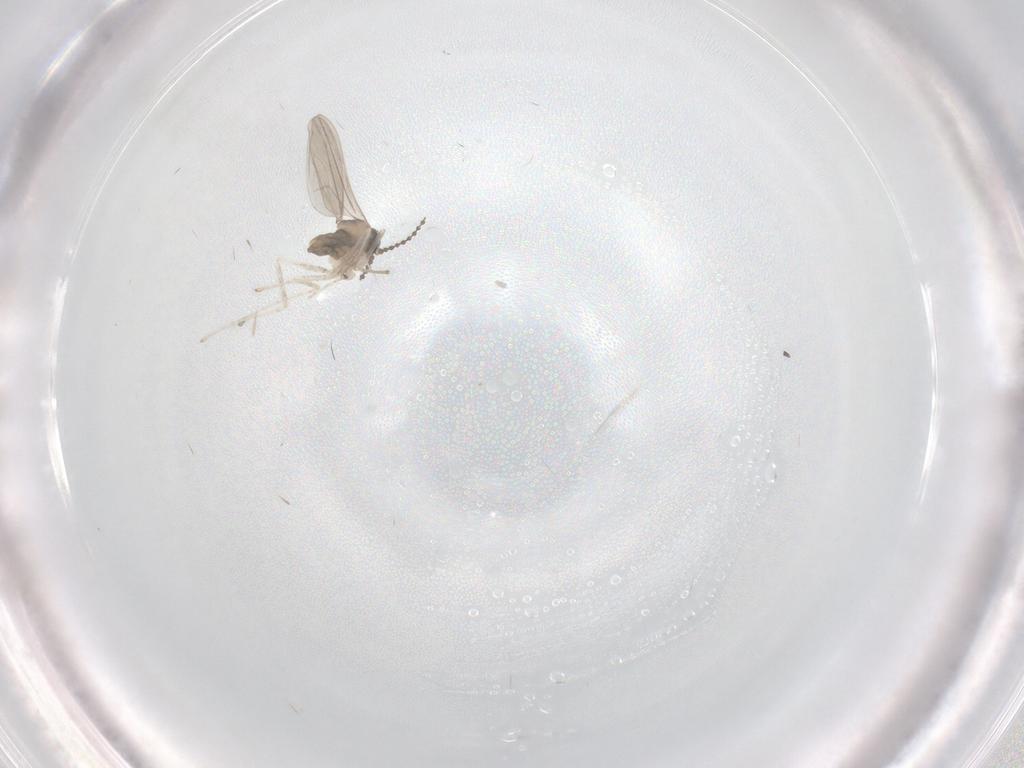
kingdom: Animalia
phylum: Arthropoda
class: Insecta
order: Diptera
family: Cecidomyiidae
